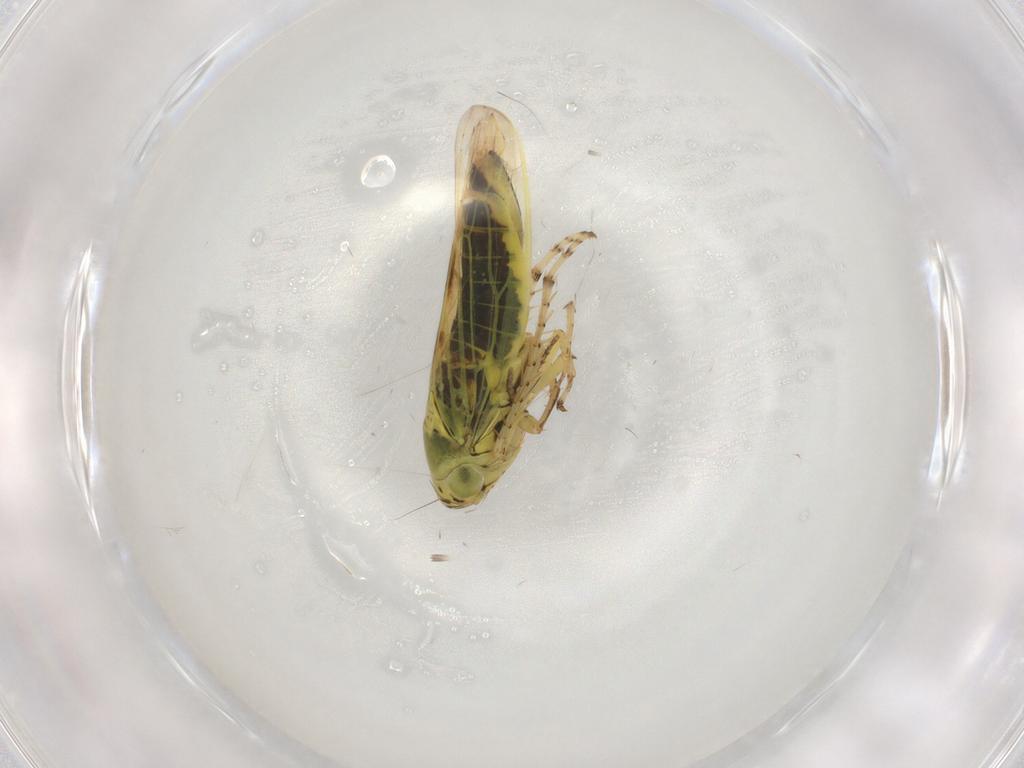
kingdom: Animalia
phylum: Arthropoda
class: Insecta
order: Hemiptera
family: Cicadellidae
